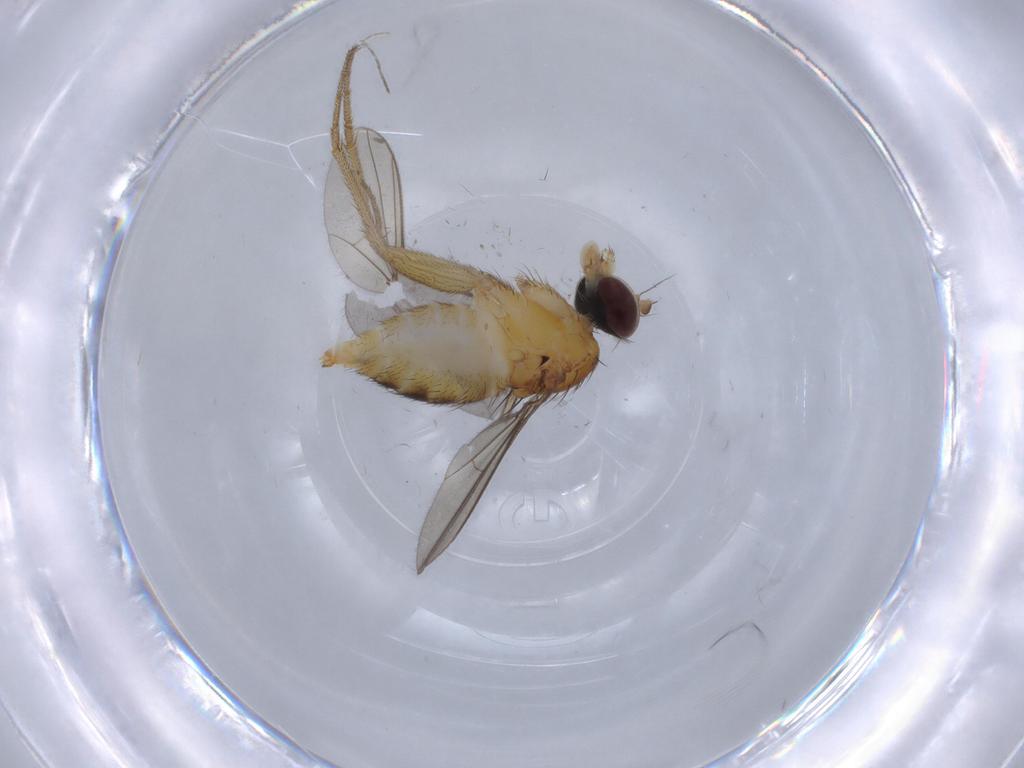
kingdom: Animalia
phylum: Arthropoda
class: Insecta
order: Diptera
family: Dolichopodidae
